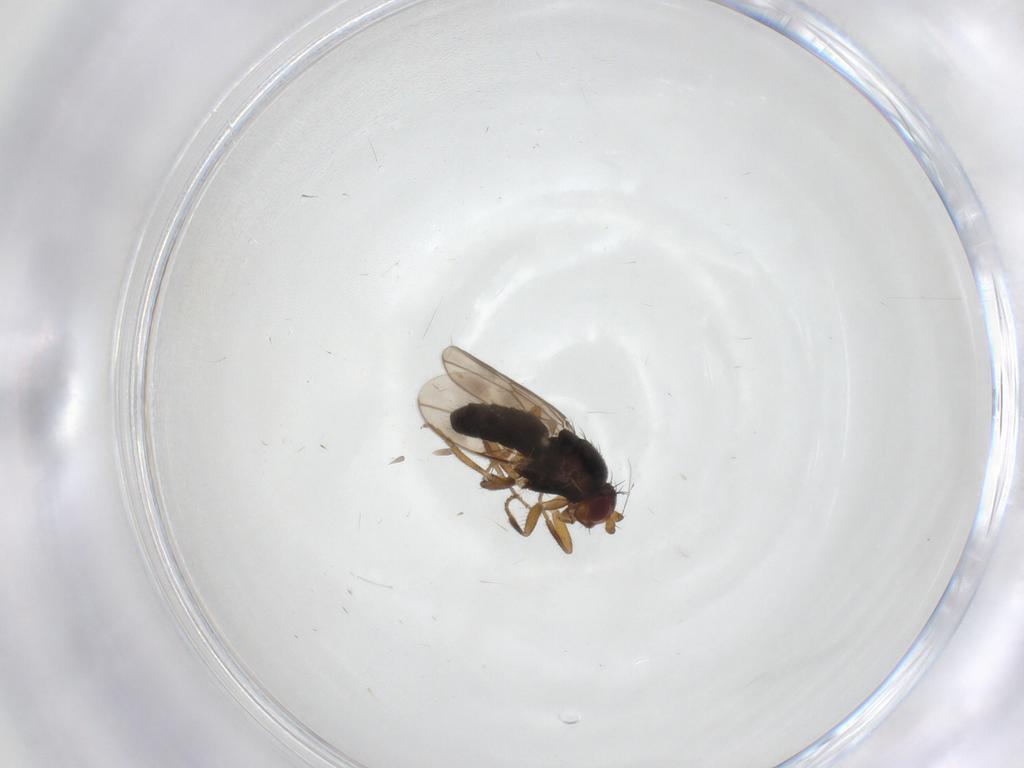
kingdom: Animalia
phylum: Arthropoda
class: Insecta
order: Diptera
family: Sphaeroceridae
